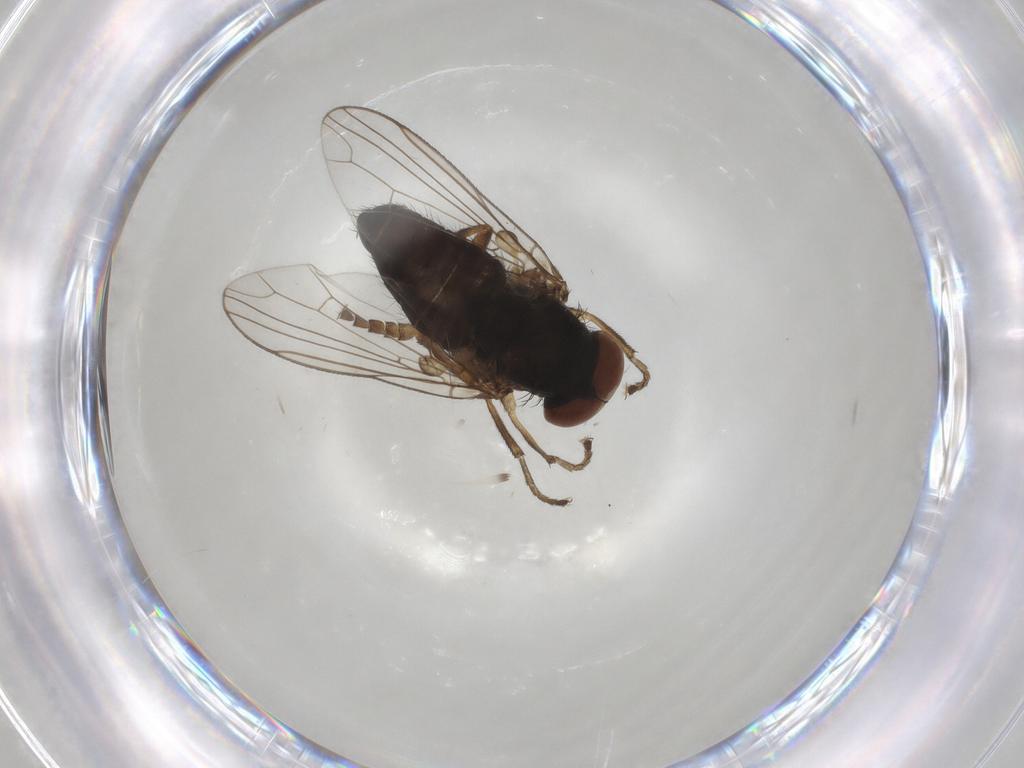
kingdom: Animalia
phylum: Arthropoda
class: Insecta
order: Diptera
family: Platypezidae
